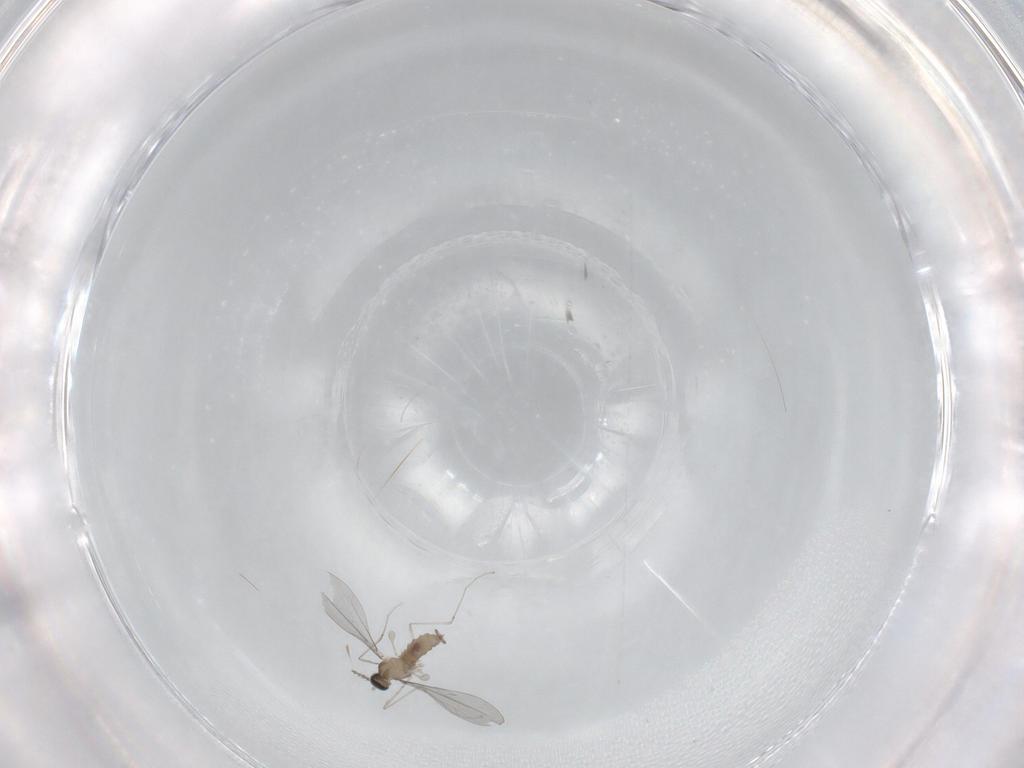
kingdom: Animalia
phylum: Arthropoda
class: Insecta
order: Diptera
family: Cecidomyiidae
